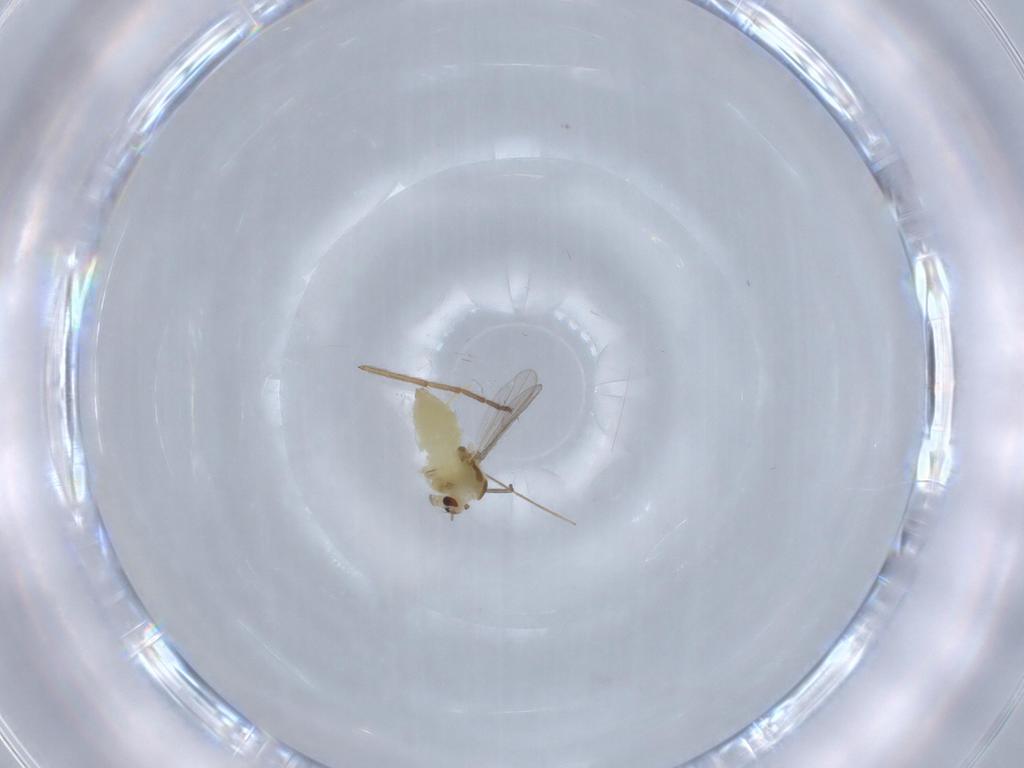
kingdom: Animalia
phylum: Arthropoda
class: Insecta
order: Diptera
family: Chironomidae
